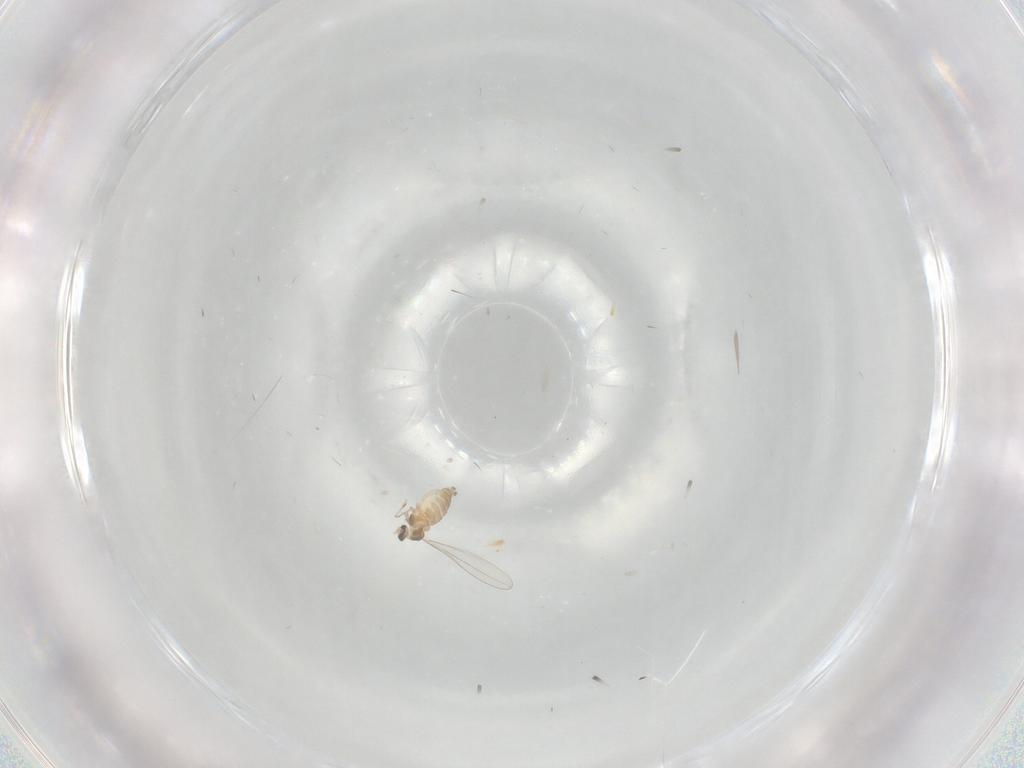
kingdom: Animalia
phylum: Arthropoda
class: Insecta
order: Diptera
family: Cecidomyiidae
